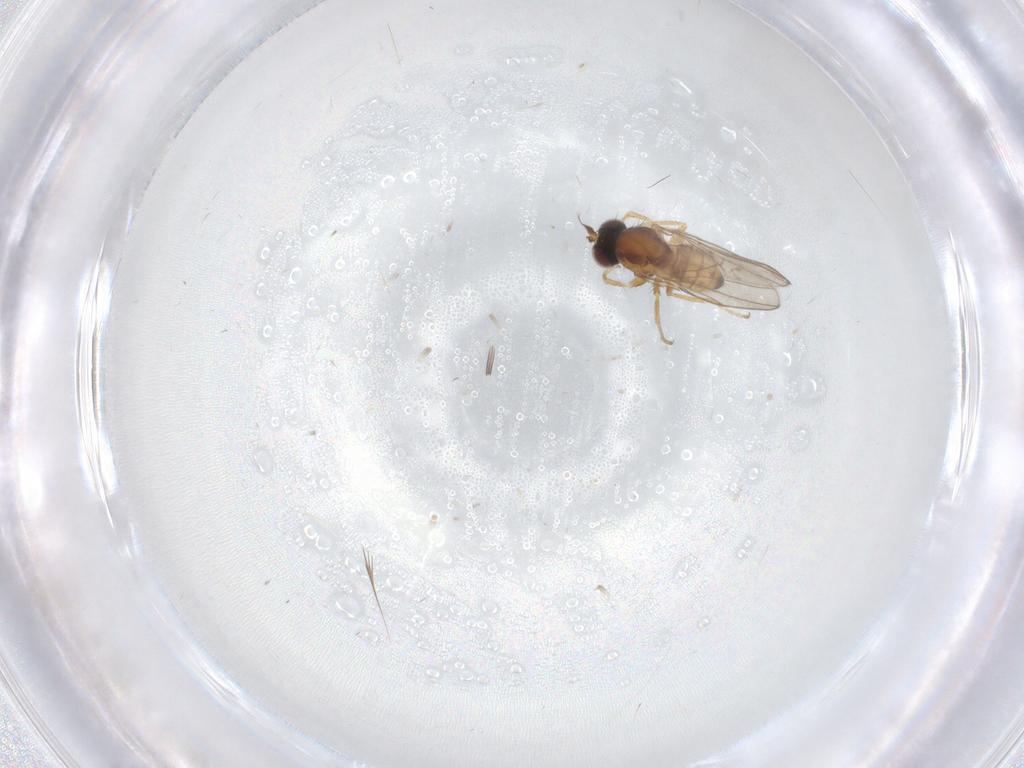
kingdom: Animalia
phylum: Arthropoda
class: Insecta
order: Diptera
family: Ephydridae
